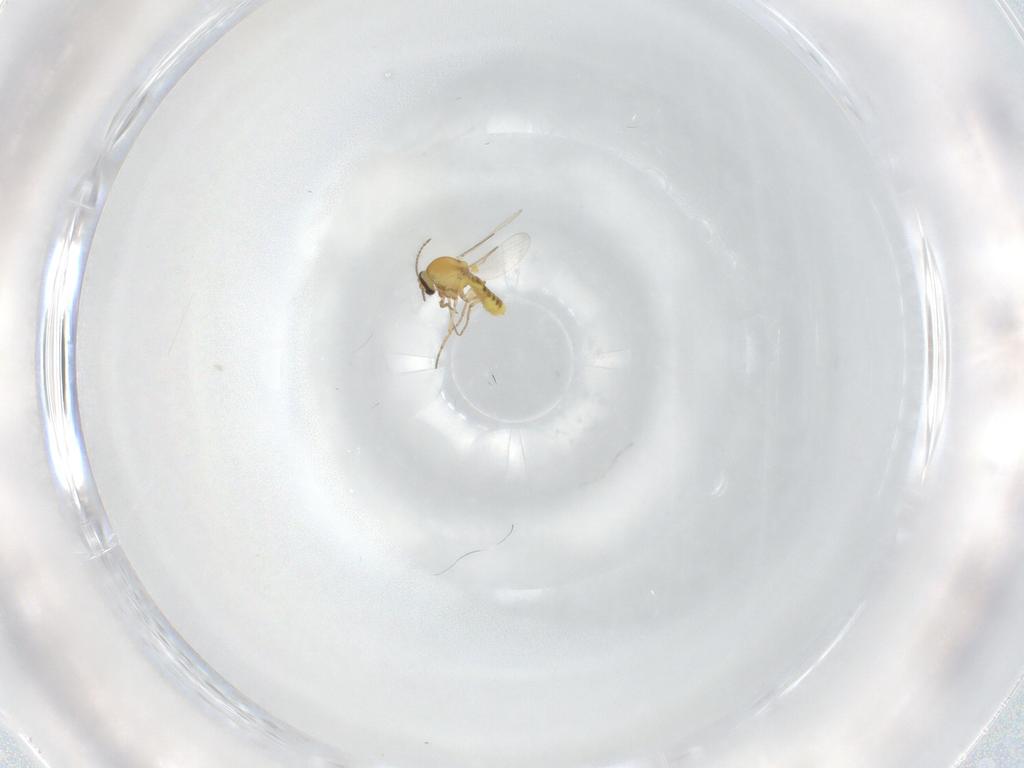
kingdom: Animalia
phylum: Arthropoda
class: Insecta
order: Diptera
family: Ceratopogonidae
